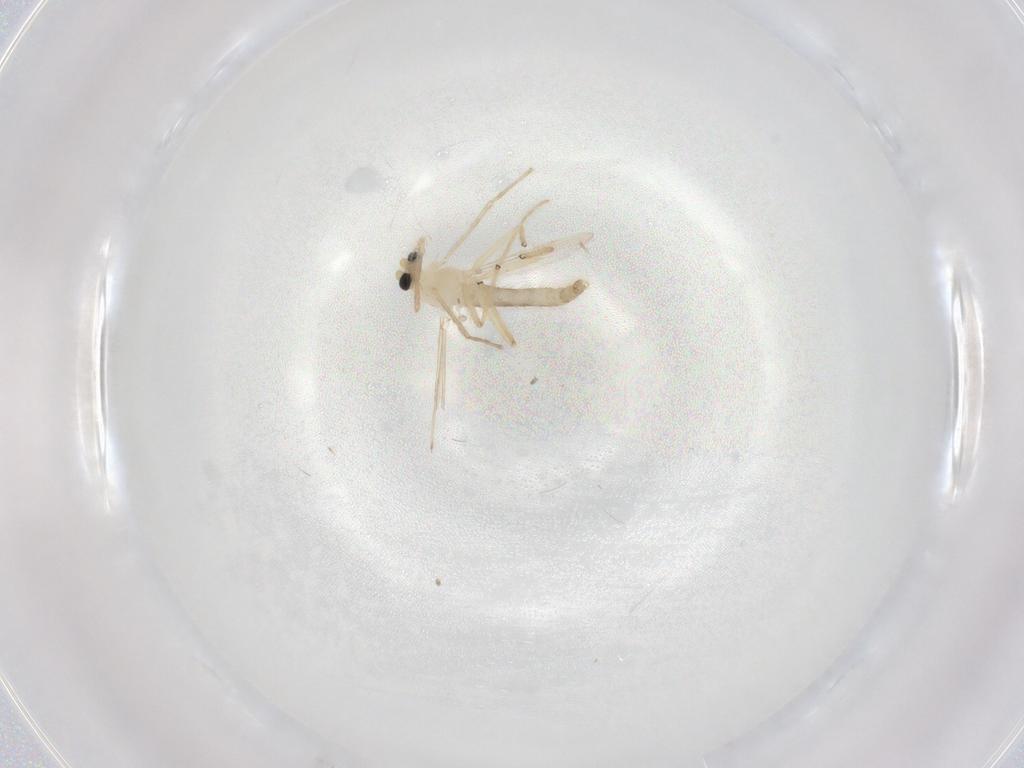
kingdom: Animalia
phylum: Arthropoda
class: Insecta
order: Diptera
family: Chironomidae
